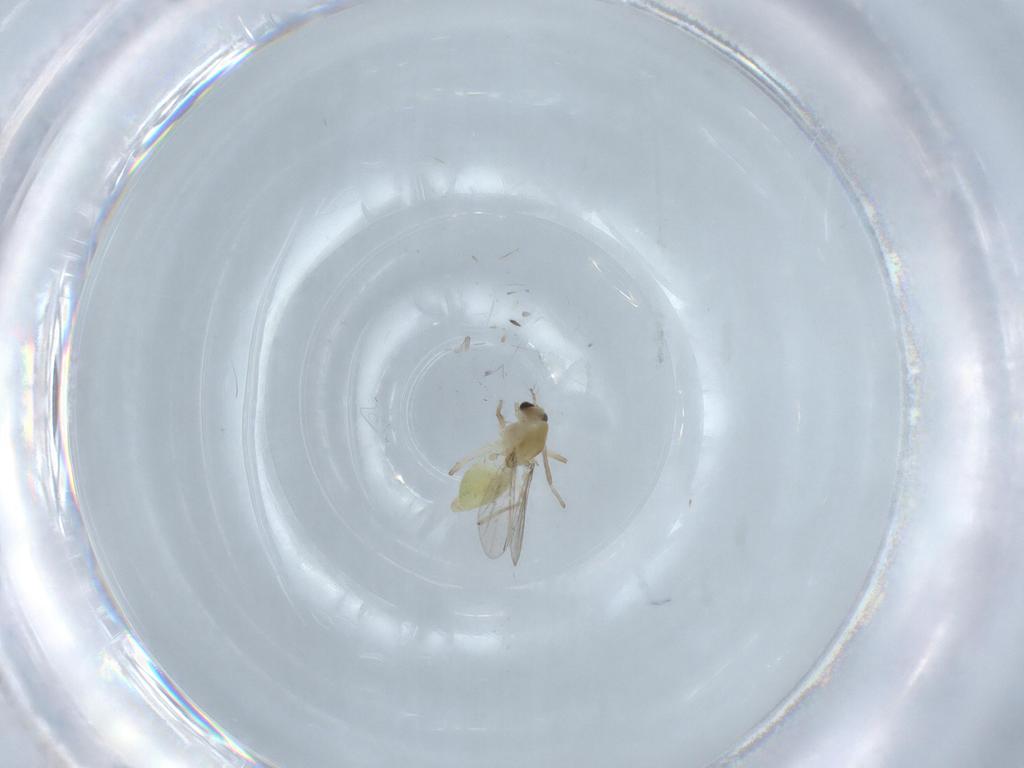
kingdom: Animalia
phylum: Arthropoda
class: Insecta
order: Diptera
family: Chironomidae
